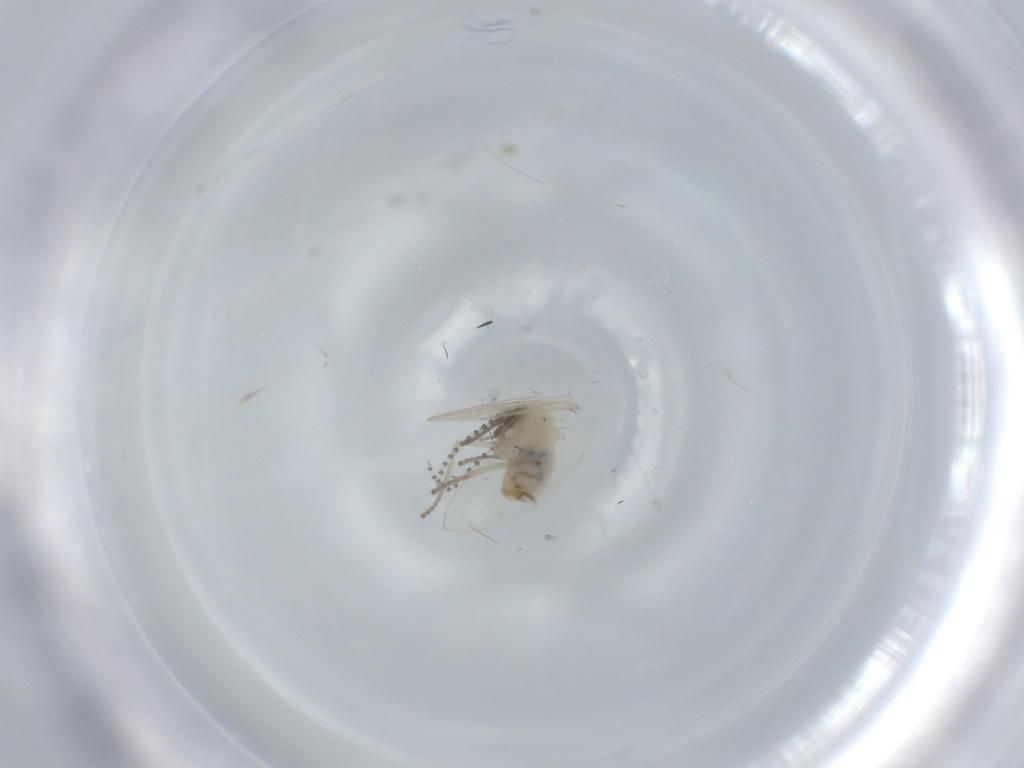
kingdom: Animalia
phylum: Arthropoda
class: Insecta
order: Diptera
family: Psychodidae
